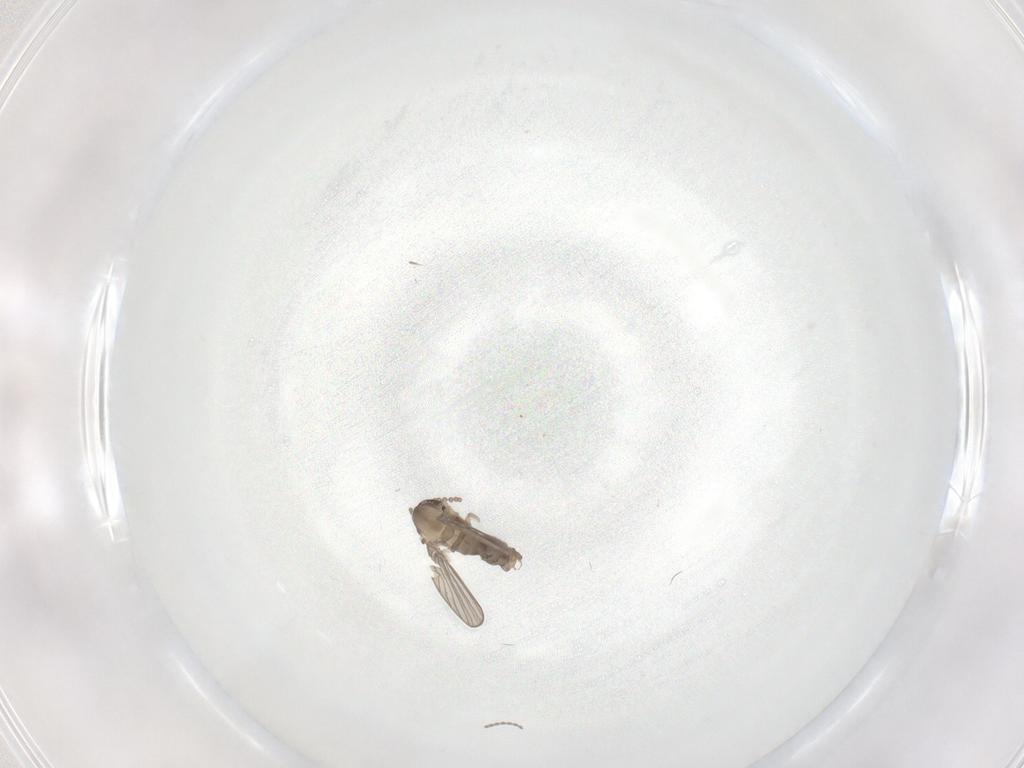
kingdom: Animalia
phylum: Arthropoda
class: Insecta
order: Diptera
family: Psychodidae
